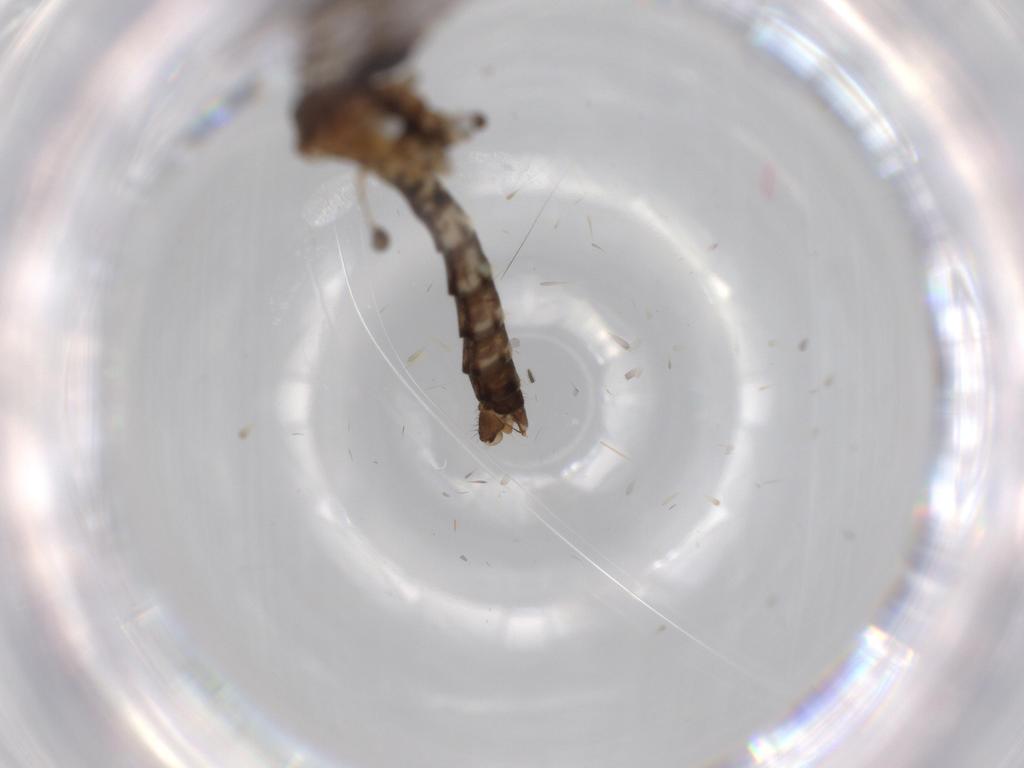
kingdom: Animalia
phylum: Arthropoda
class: Insecta
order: Diptera
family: Limoniidae
